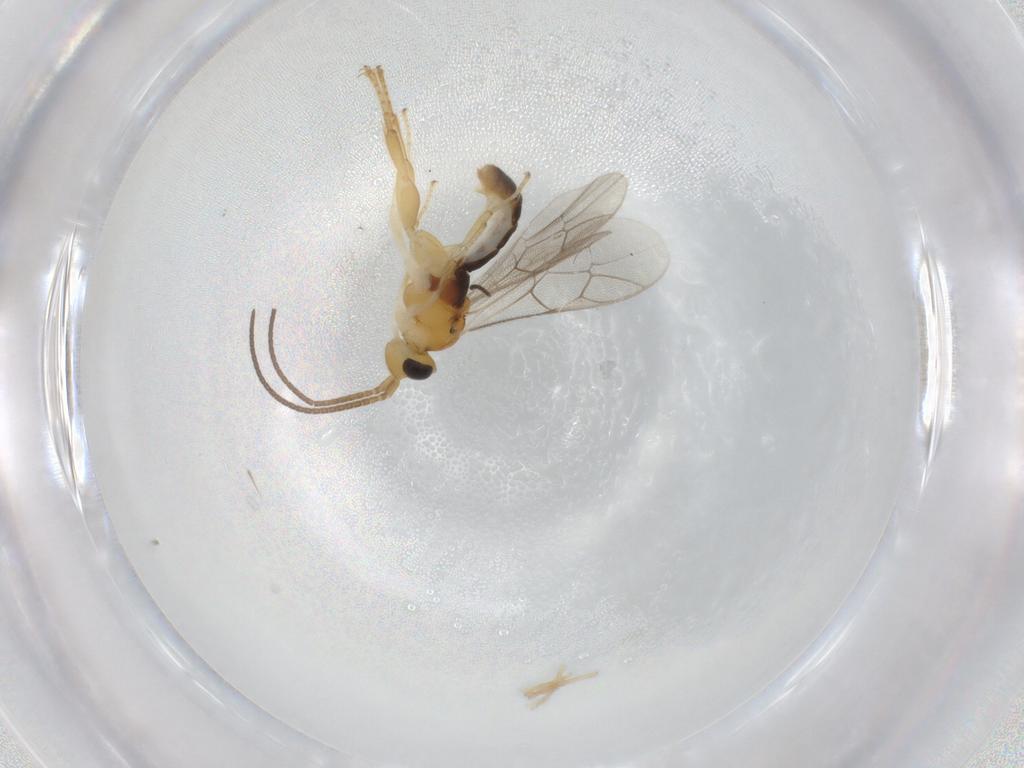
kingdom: Animalia
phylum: Arthropoda
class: Insecta
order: Hymenoptera
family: Ichneumonidae
